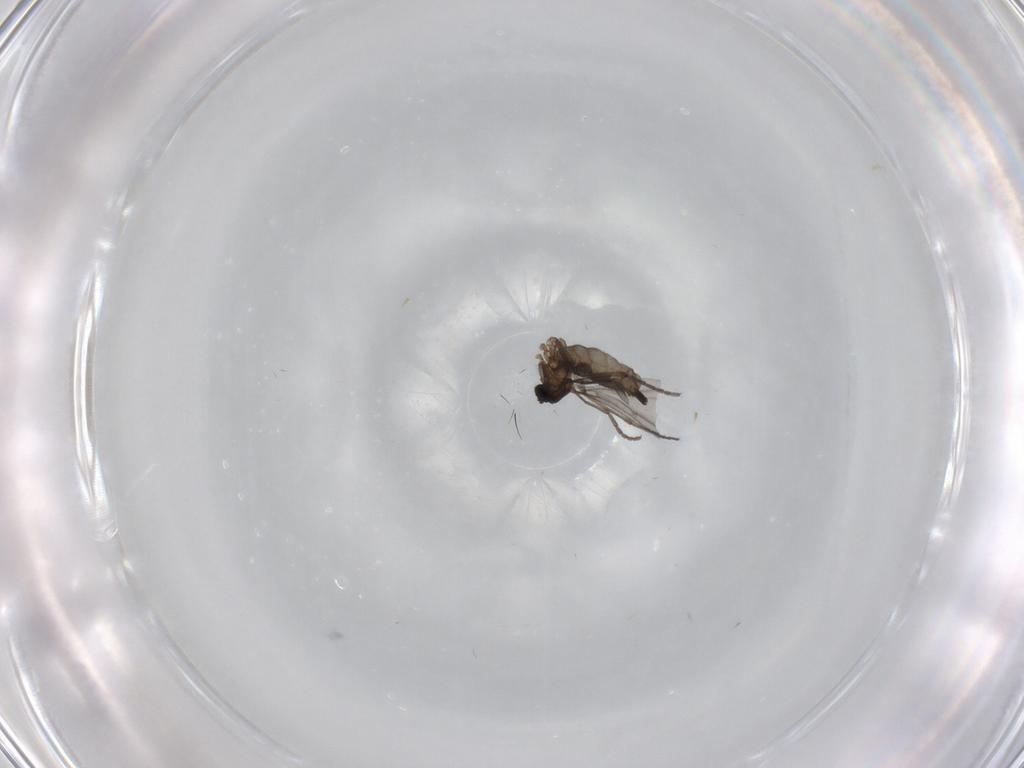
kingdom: Animalia
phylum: Arthropoda
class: Insecta
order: Diptera
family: Sciaridae
